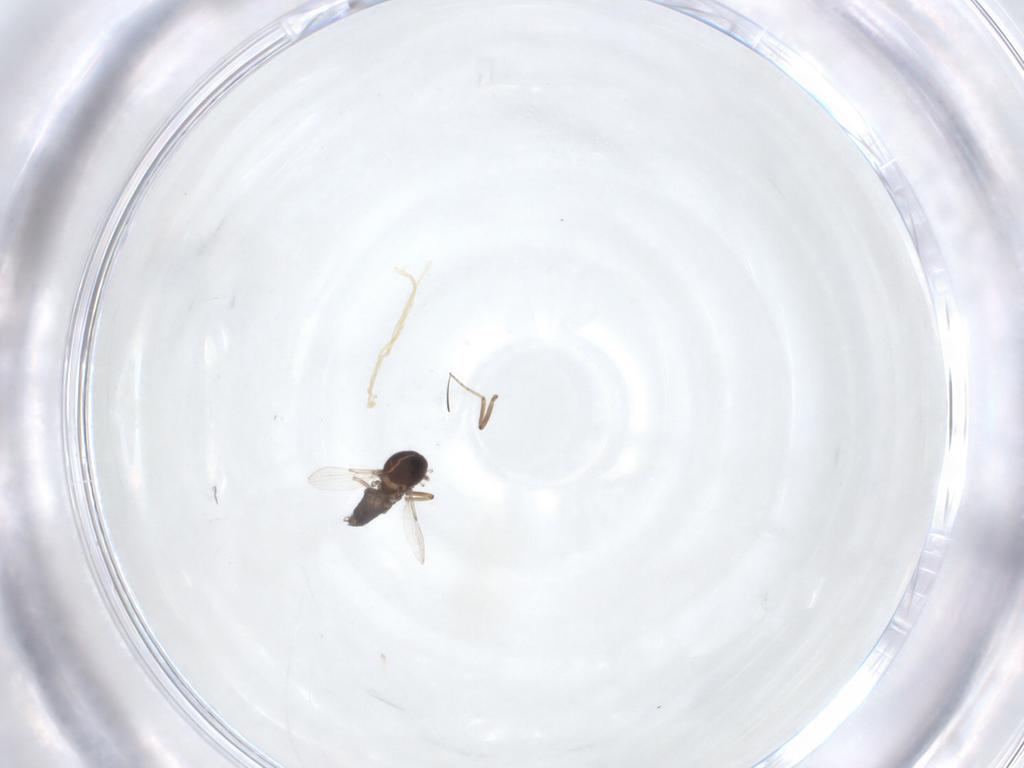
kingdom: Animalia
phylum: Arthropoda
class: Insecta
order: Diptera
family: Ceratopogonidae
